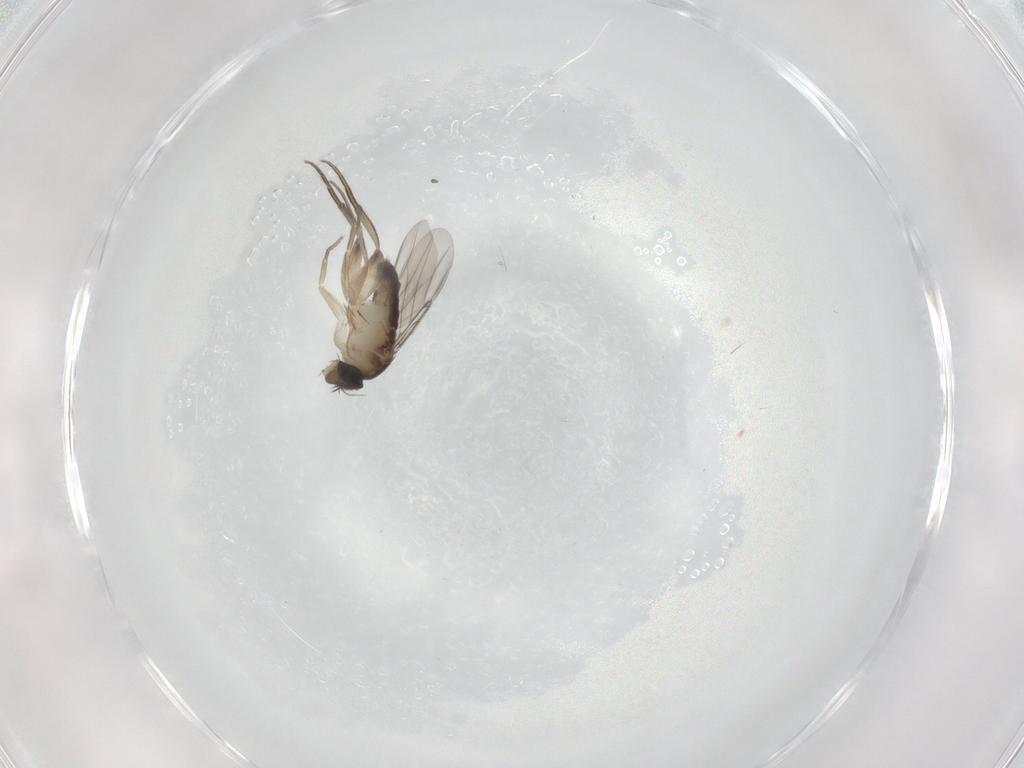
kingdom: Animalia
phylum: Arthropoda
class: Insecta
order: Diptera
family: Phoridae
